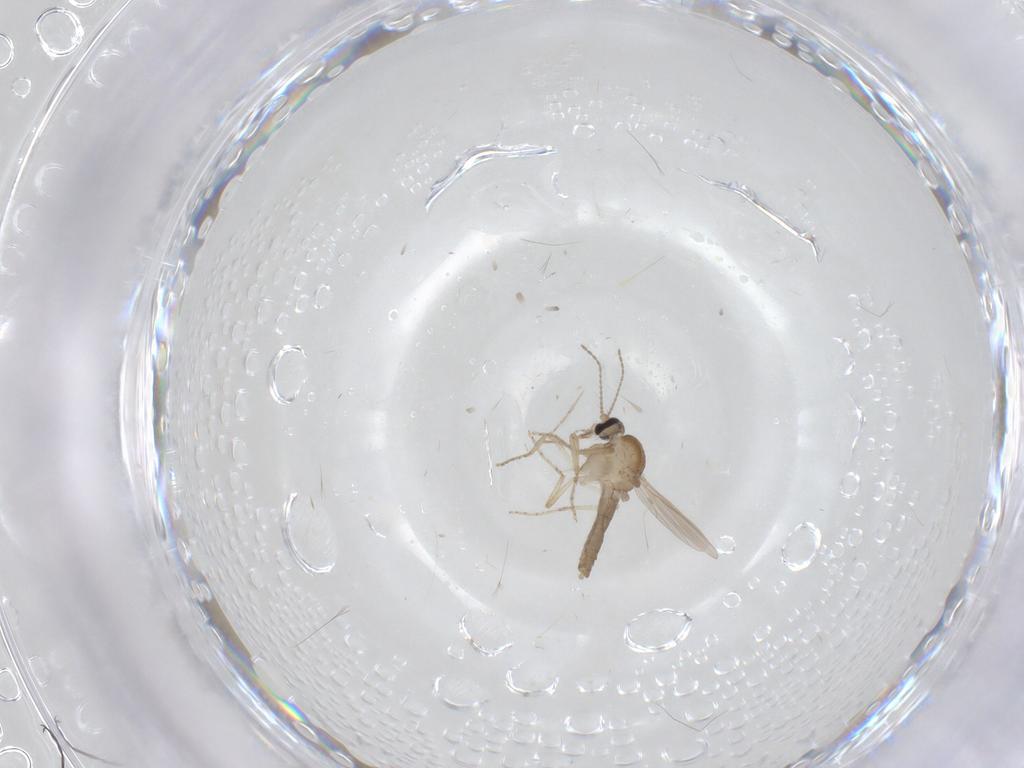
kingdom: Animalia
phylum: Arthropoda
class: Insecta
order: Diptera
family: Ceratopogonidae
